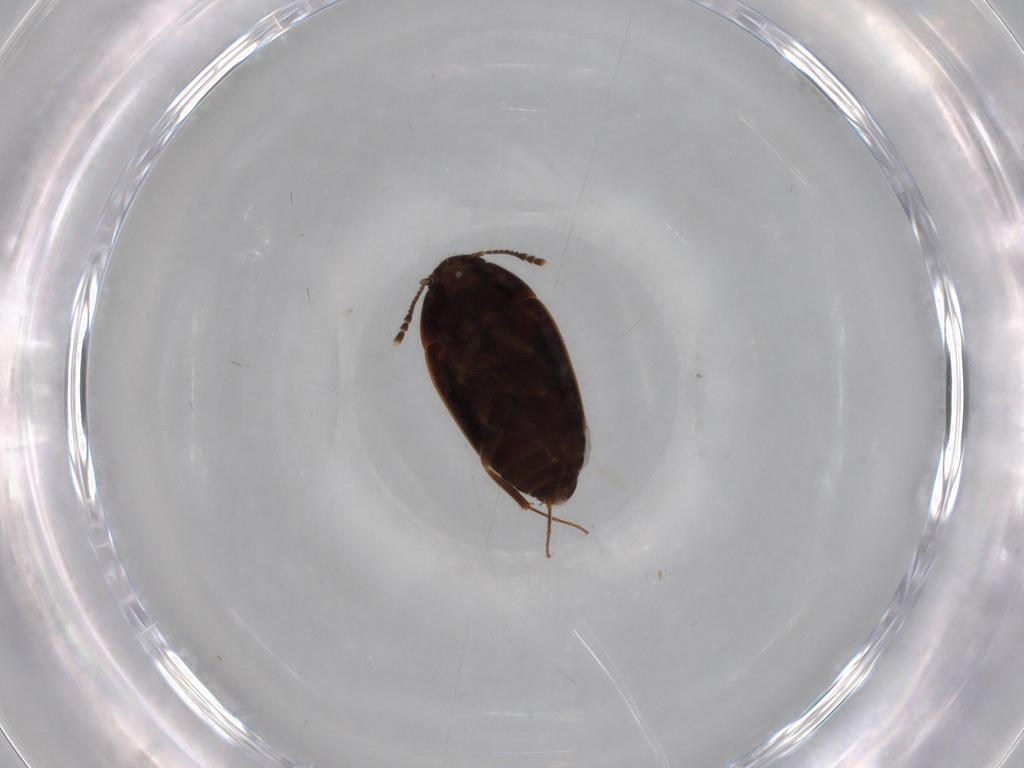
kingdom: Animalia
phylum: Arthropoda
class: Insecta
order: Coleoptera
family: Mycetophagidae
